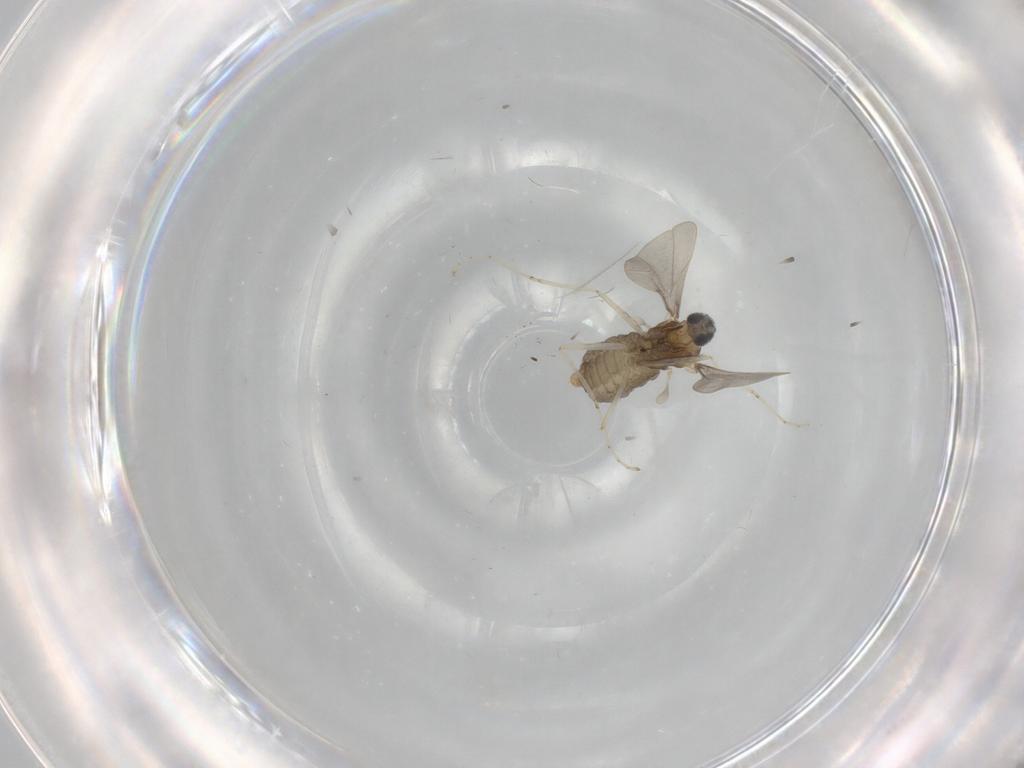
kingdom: Animalia
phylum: Arthropoda
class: Insecta
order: Diptera
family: Cecidomyiidae
